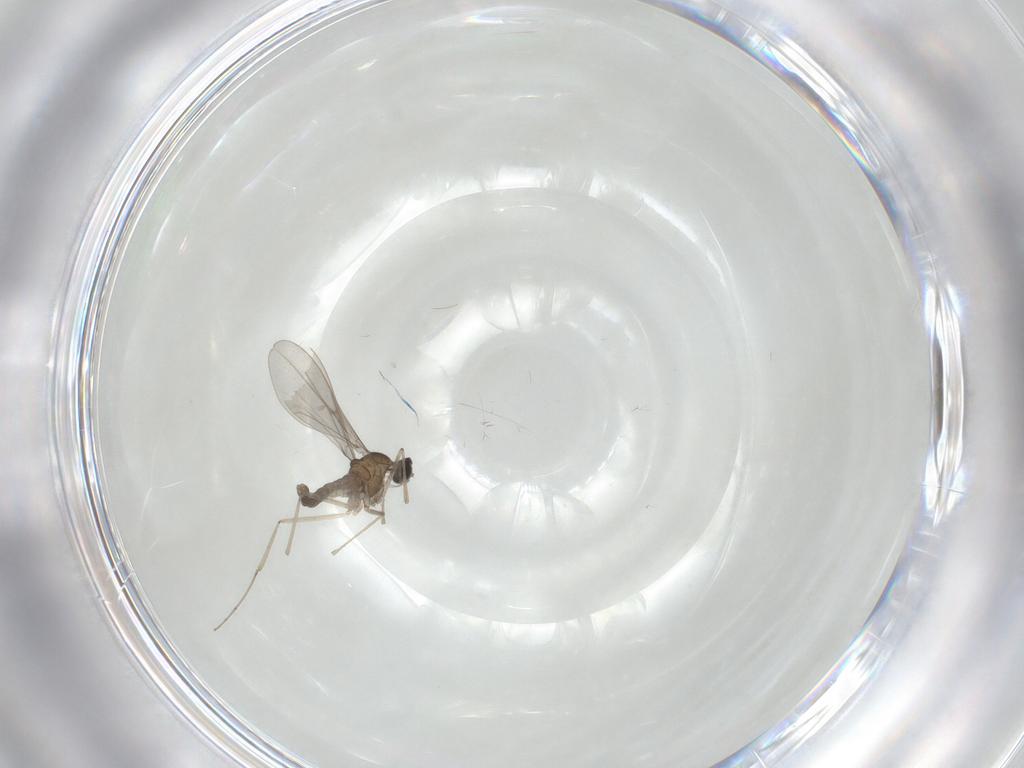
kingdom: Animalia
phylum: Arthropoda
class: Insecta
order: Diptera
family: Cecidomyiidae
